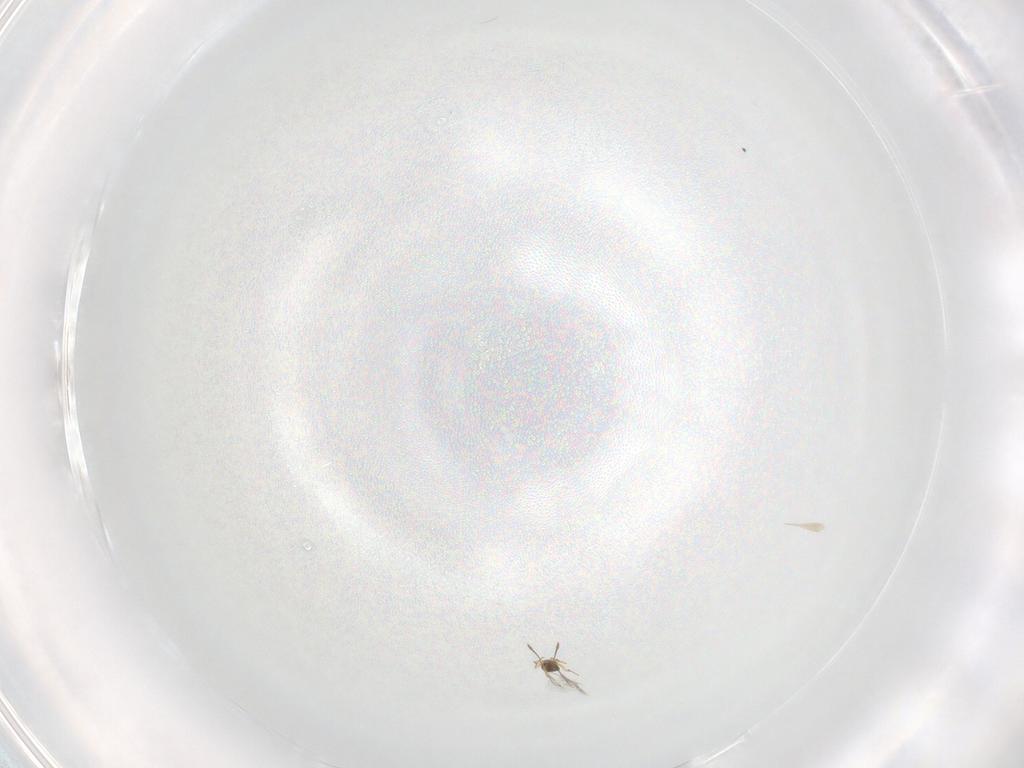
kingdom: Animalia
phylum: Arthropoda
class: Insecta
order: Hymenoptera
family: Mymaridae
